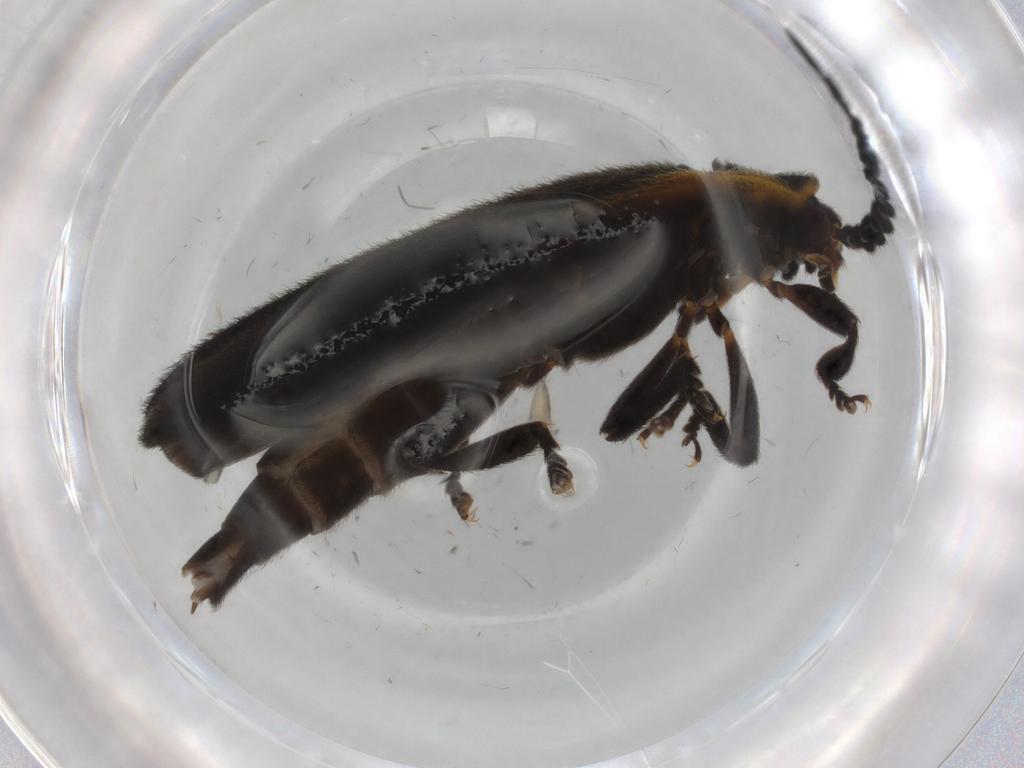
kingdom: Animalia
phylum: Arthropoda
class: Insecta
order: Coleoptera
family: Lycidae
